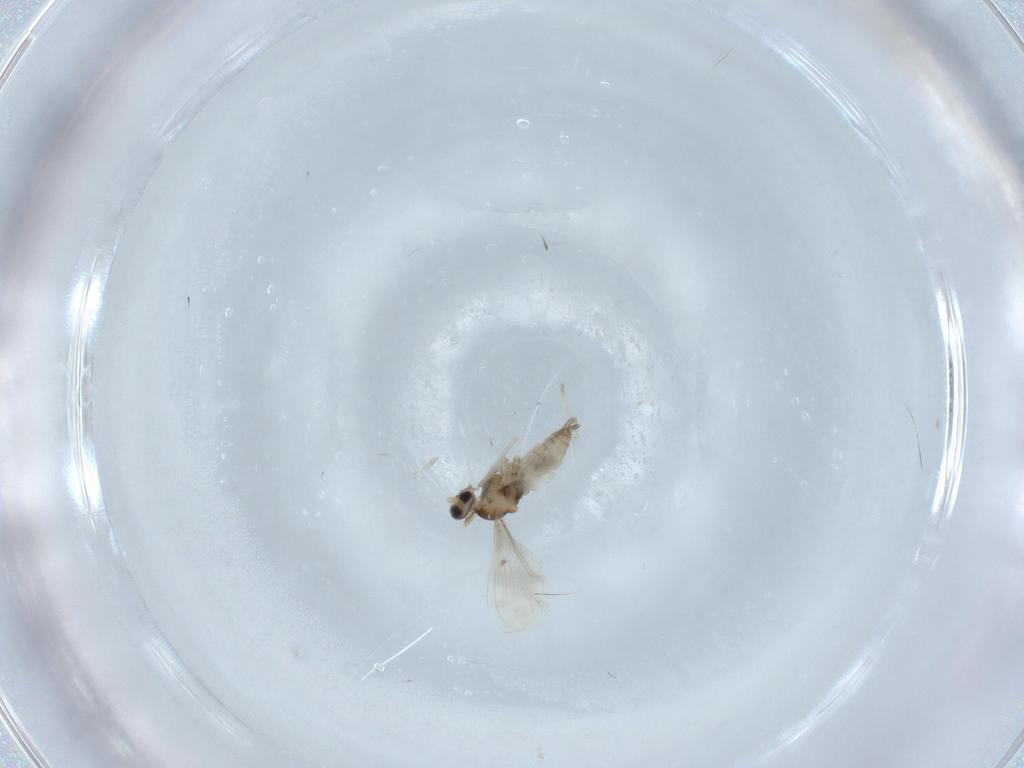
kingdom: Animalia
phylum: Arthropoda
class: Insecta
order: Diptera
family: Cecidomyiidae
